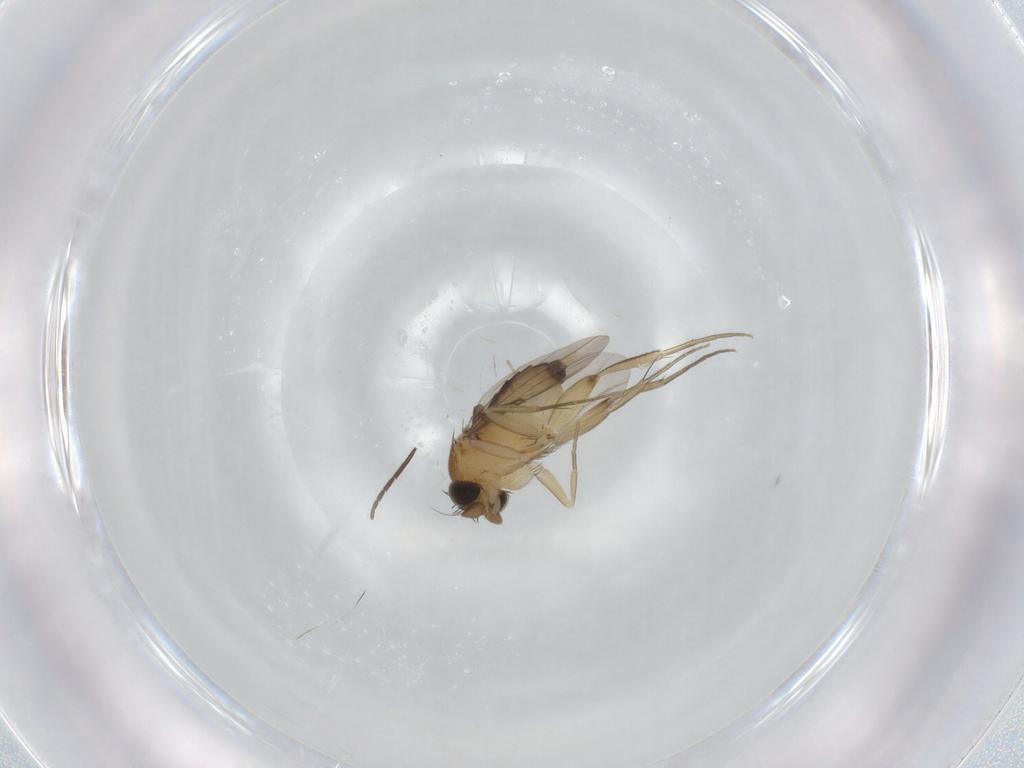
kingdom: Animalia
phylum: Arthropoda
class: Insecta
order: Diptera
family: Phoridae
